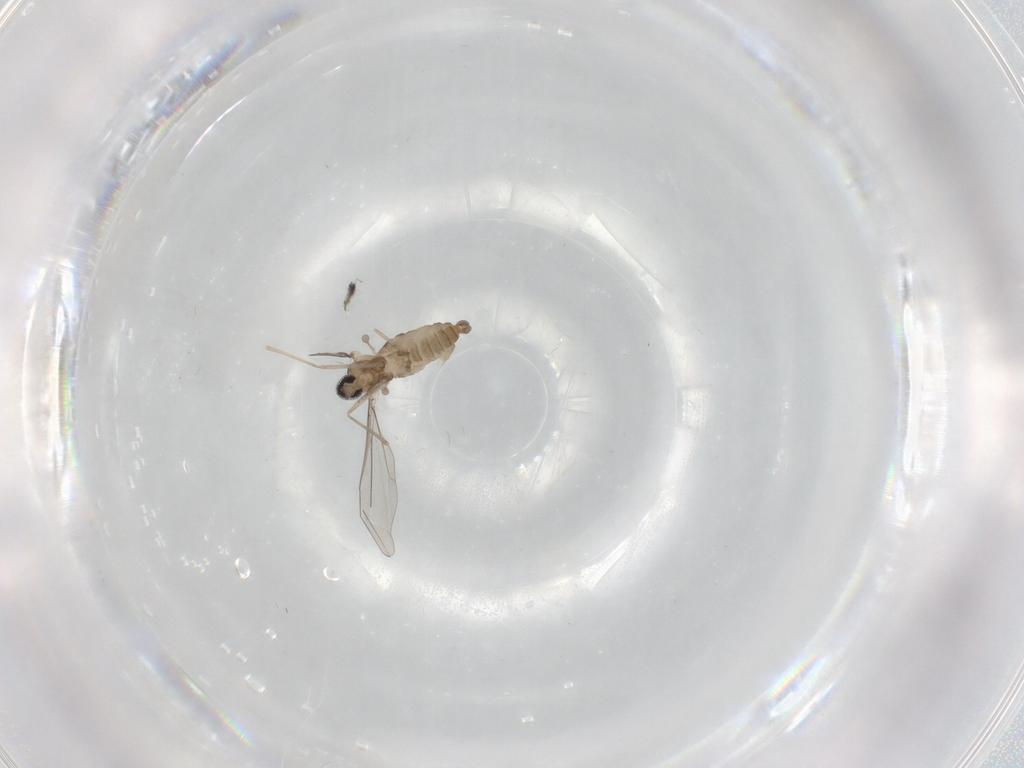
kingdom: Animalia
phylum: Arthropoda
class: Insecta
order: Diptera
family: Cecidomyiidae
